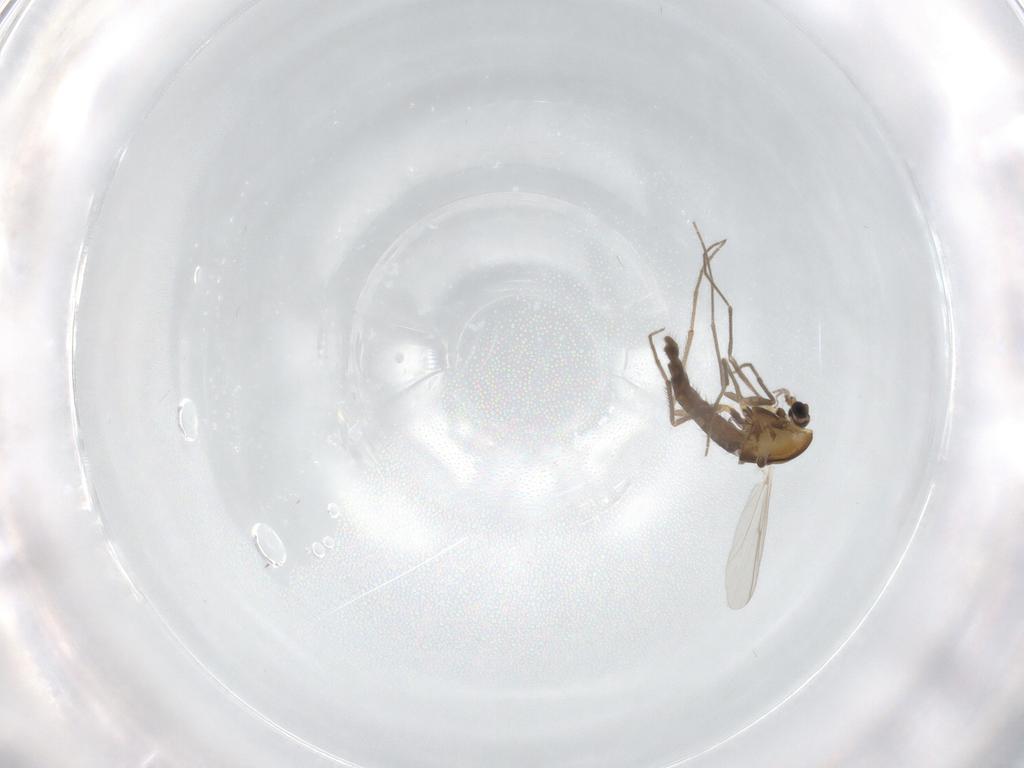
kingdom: Animalia
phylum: Arthropoda
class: Insecta
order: Diptera
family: Chironomidae
